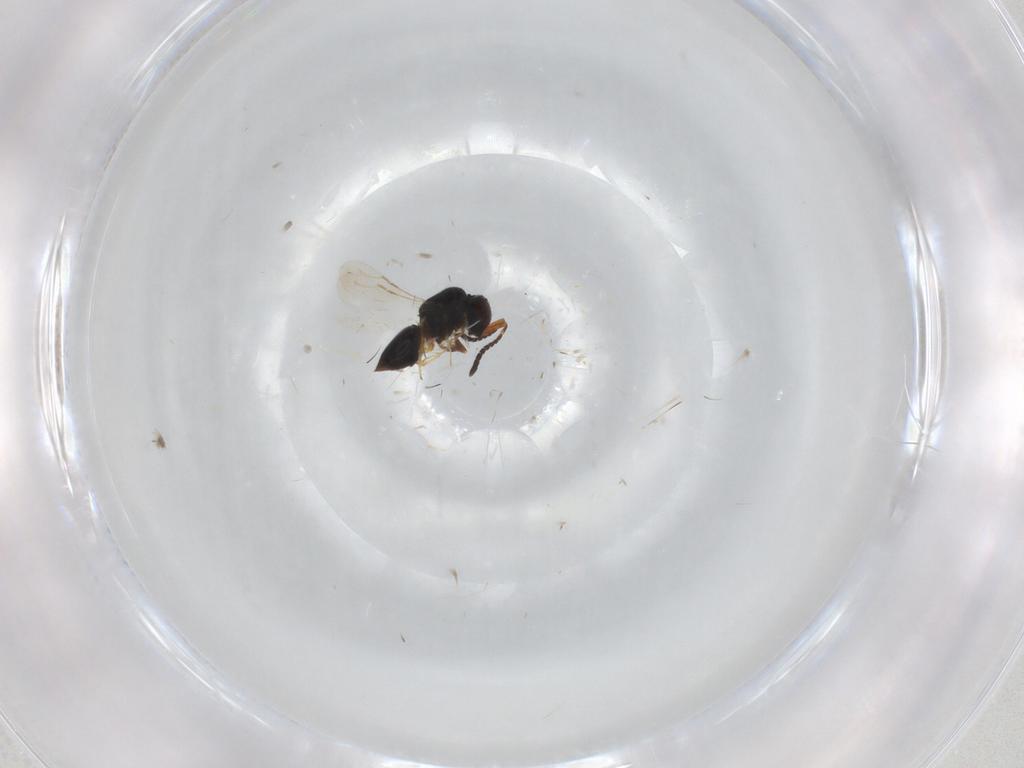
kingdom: Animalia
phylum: Arthropoda
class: Insecta
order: Hymenoptera
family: Ceraphronidae
